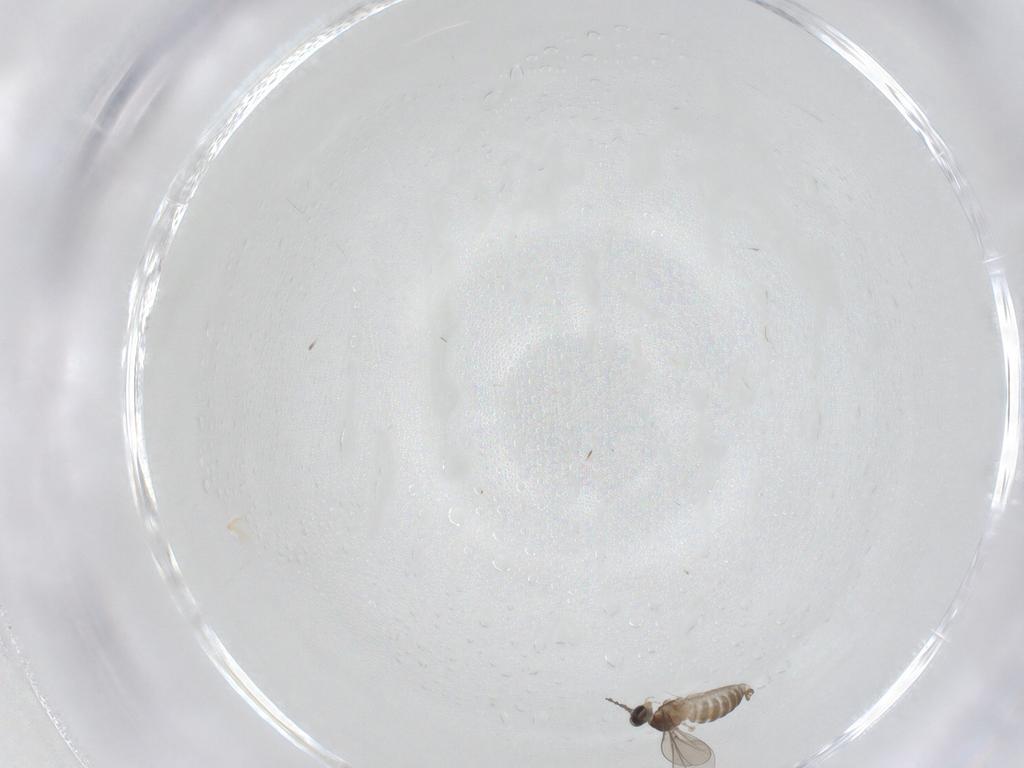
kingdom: Animalia
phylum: Arthropoda
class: Insecta
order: Diptera
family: Cecidomyiidae
